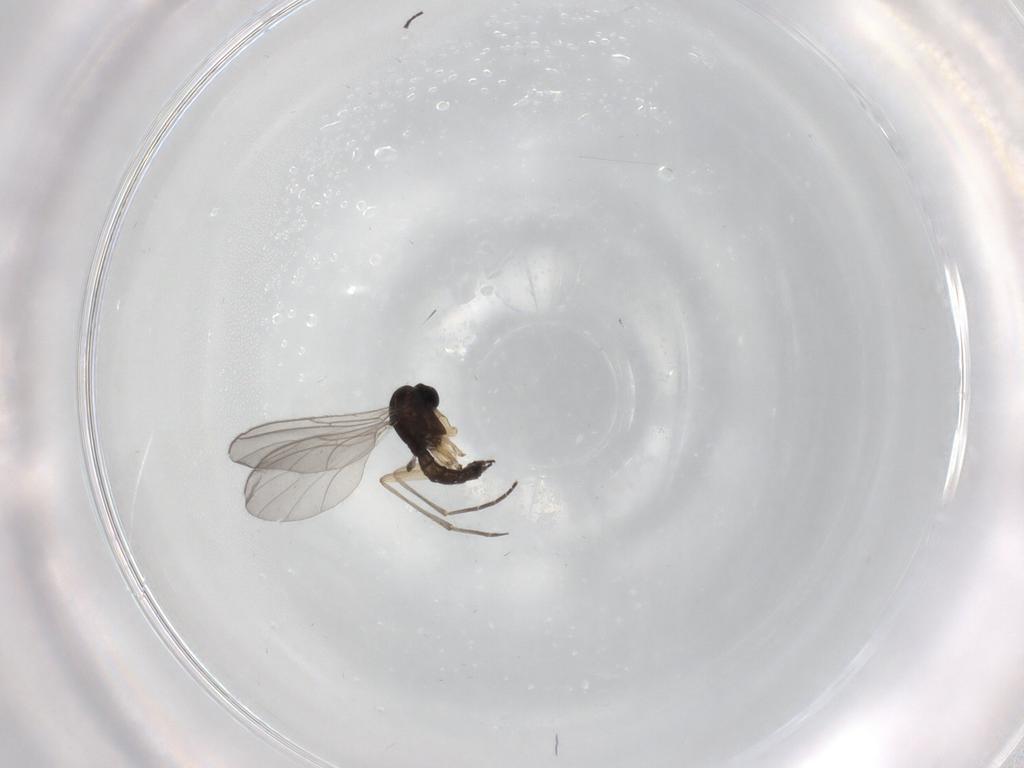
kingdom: Animalia
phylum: Arthropoda
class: Insecta
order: Diptera
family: Sciaridae
